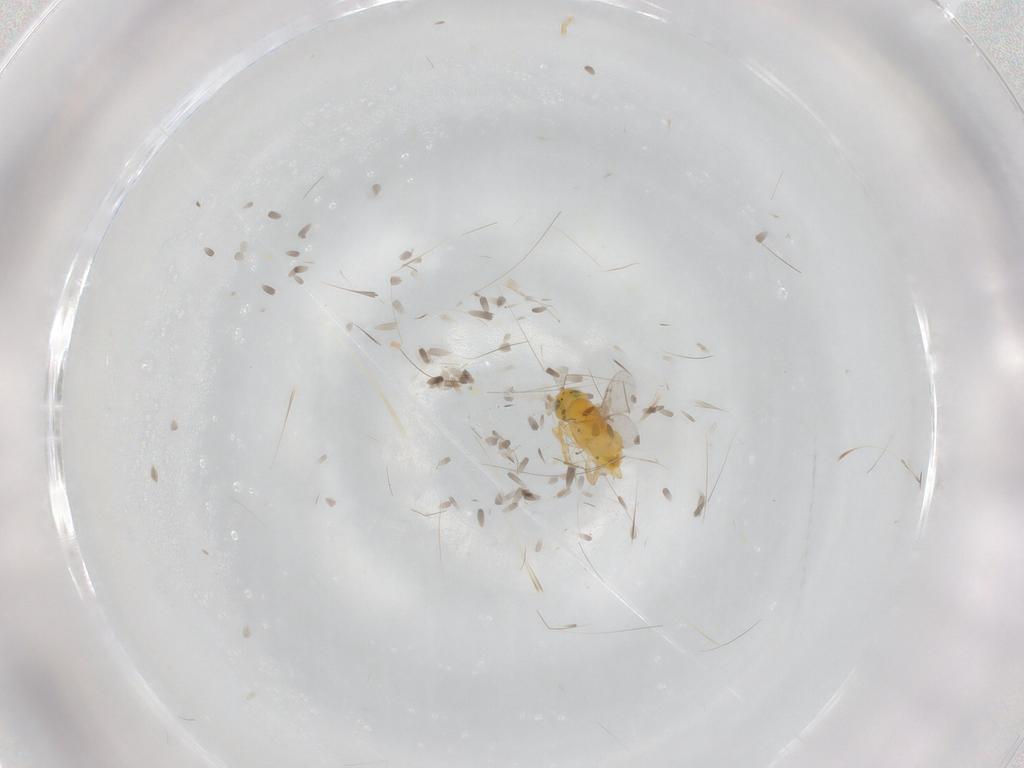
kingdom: Animalia
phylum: Arthropoda
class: Insecta
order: Hymenoptera
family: Encyrtidae
